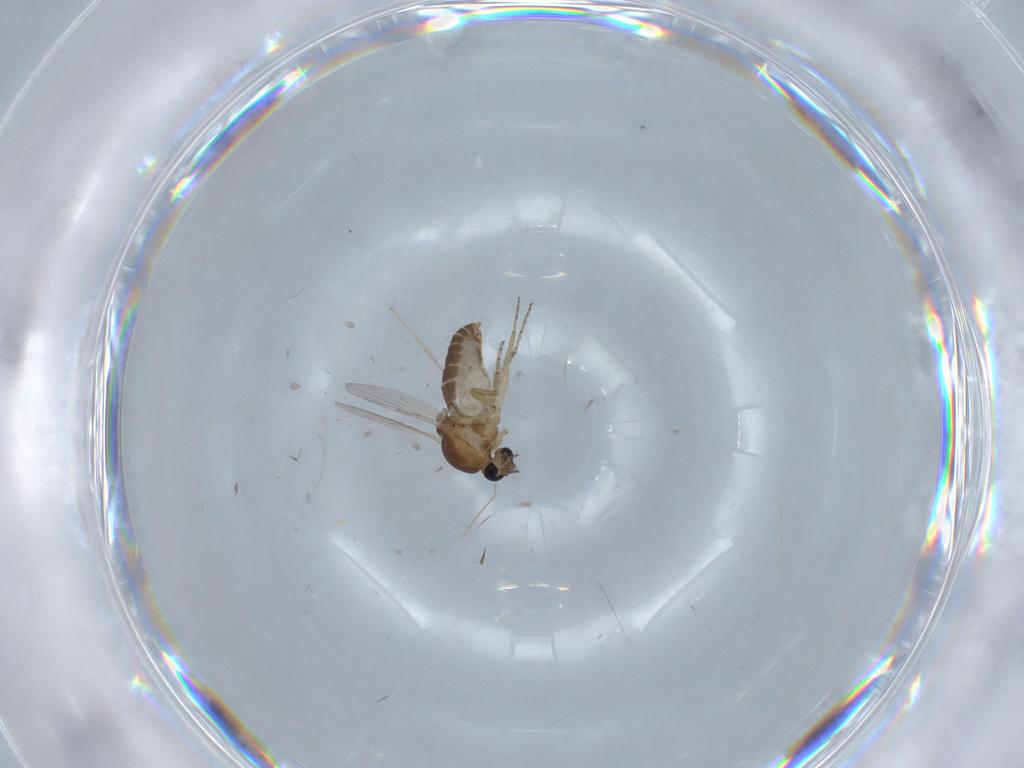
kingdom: Animalia
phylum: Arthropoda
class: Insecta
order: Diptera
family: Ceratopogonidae
